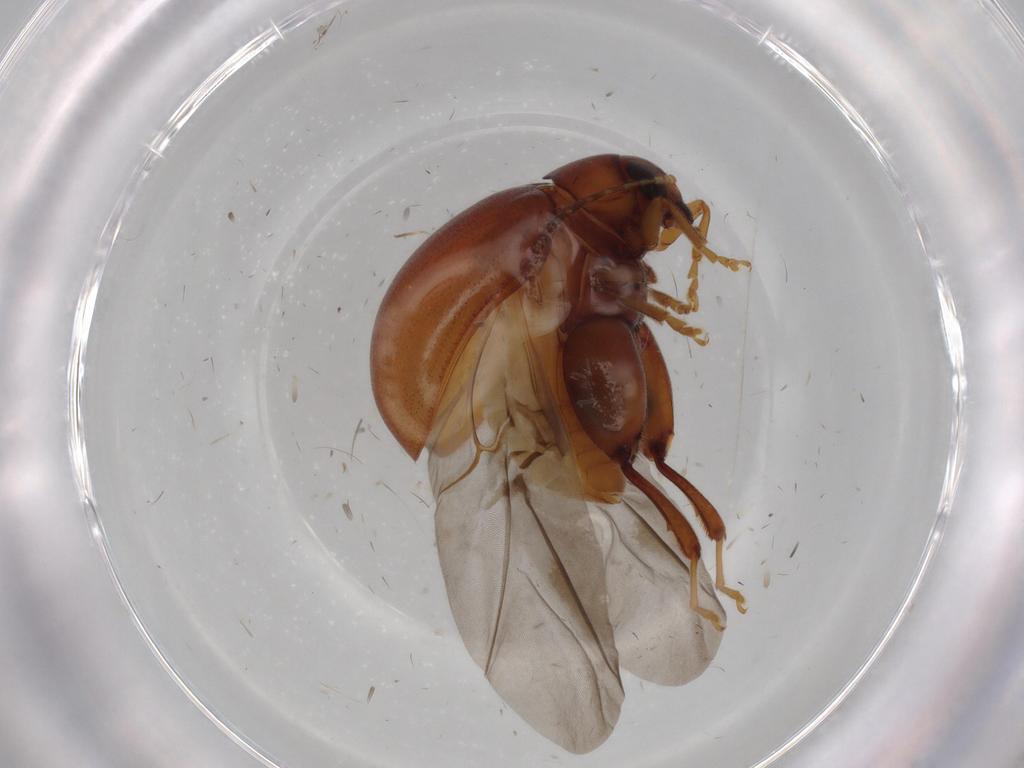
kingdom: Animalia
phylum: Arthropoda
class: Insecta
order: Coleoptera
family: Chrysomelidae
